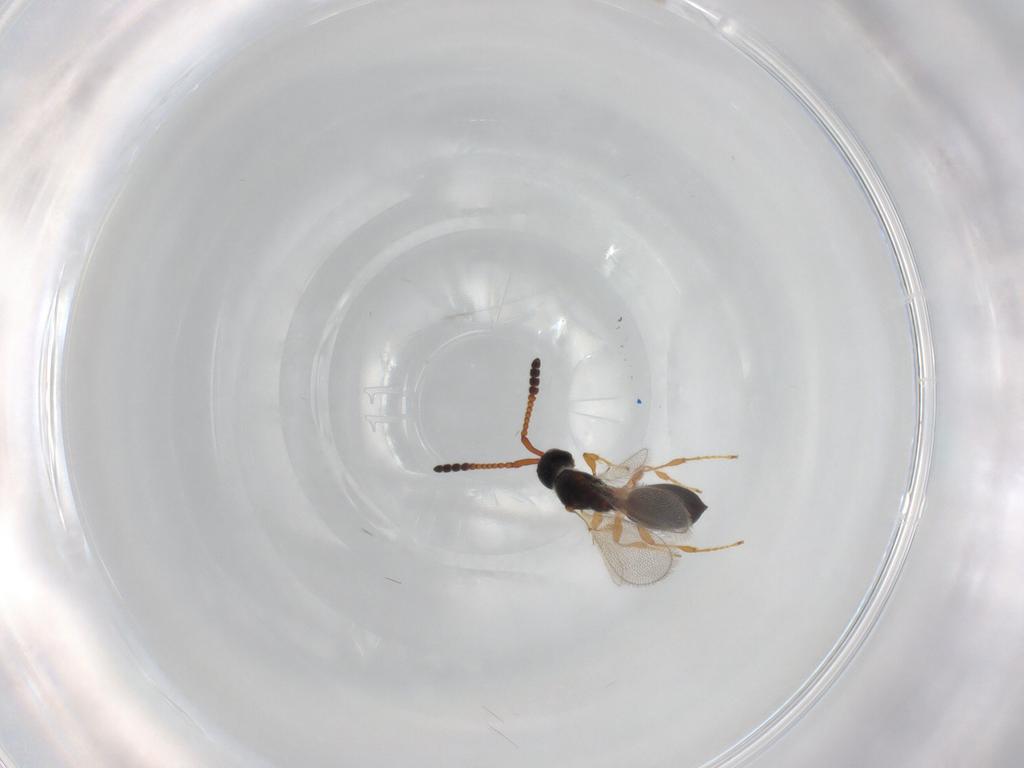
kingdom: Animalia
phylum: Arthropoda
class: Insecta
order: Hymenoptera
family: Diapriidae
